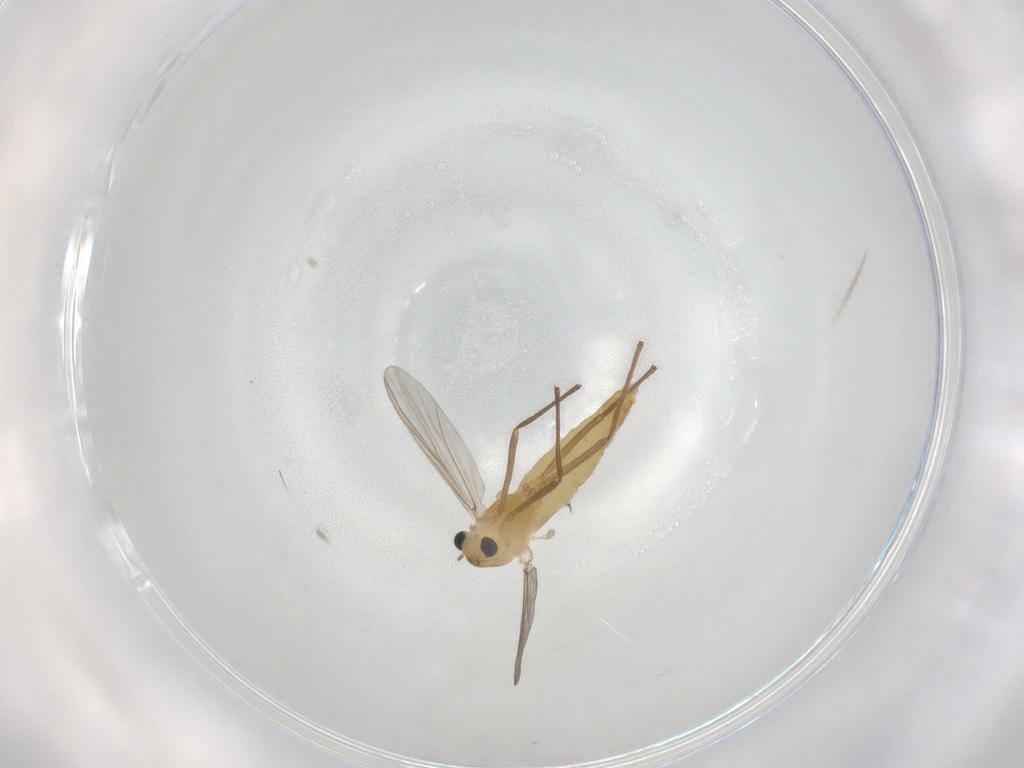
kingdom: Animalia
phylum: Arthropoda
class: Insecta
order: Diptera
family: Chironomidae
